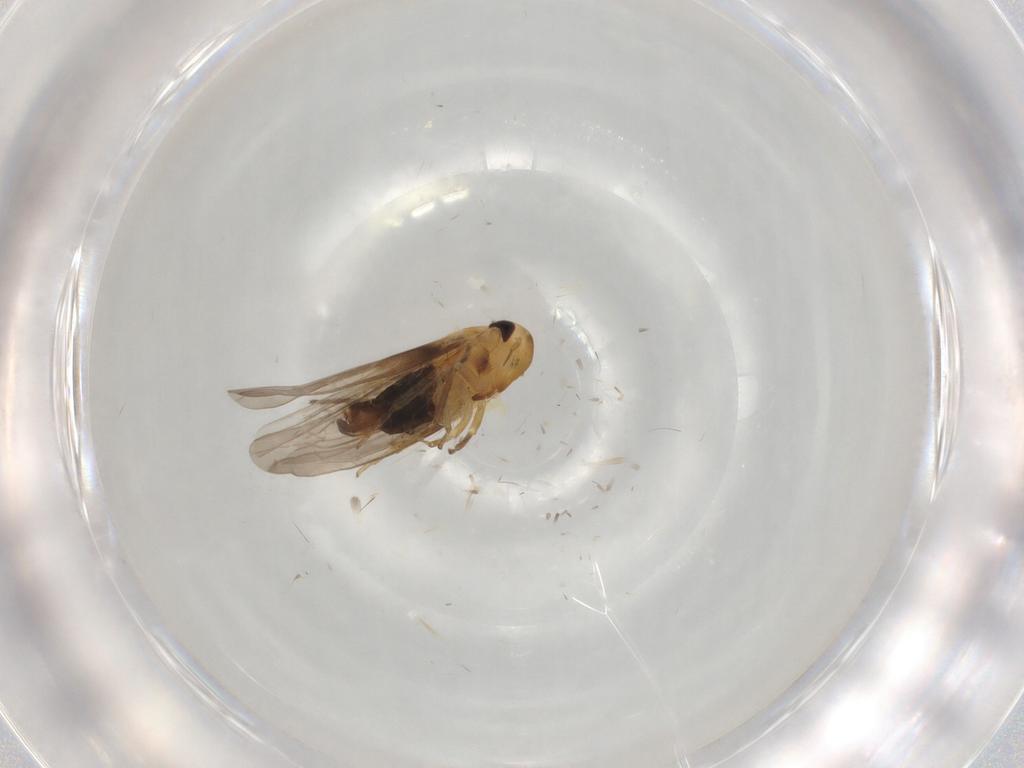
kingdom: Animalia
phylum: Arthropoda
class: Insecta
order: Hemiptera
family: Cicadellidae
